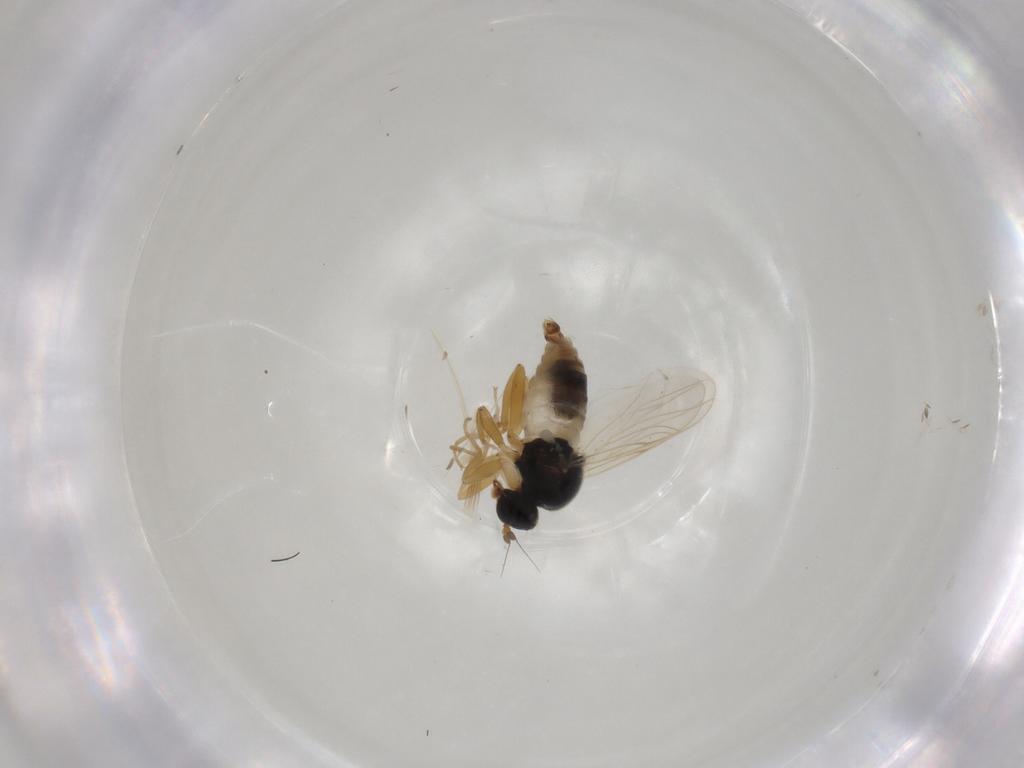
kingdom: Animalia
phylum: Arthropoda
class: Insecta
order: Diptera
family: Hybotidae
